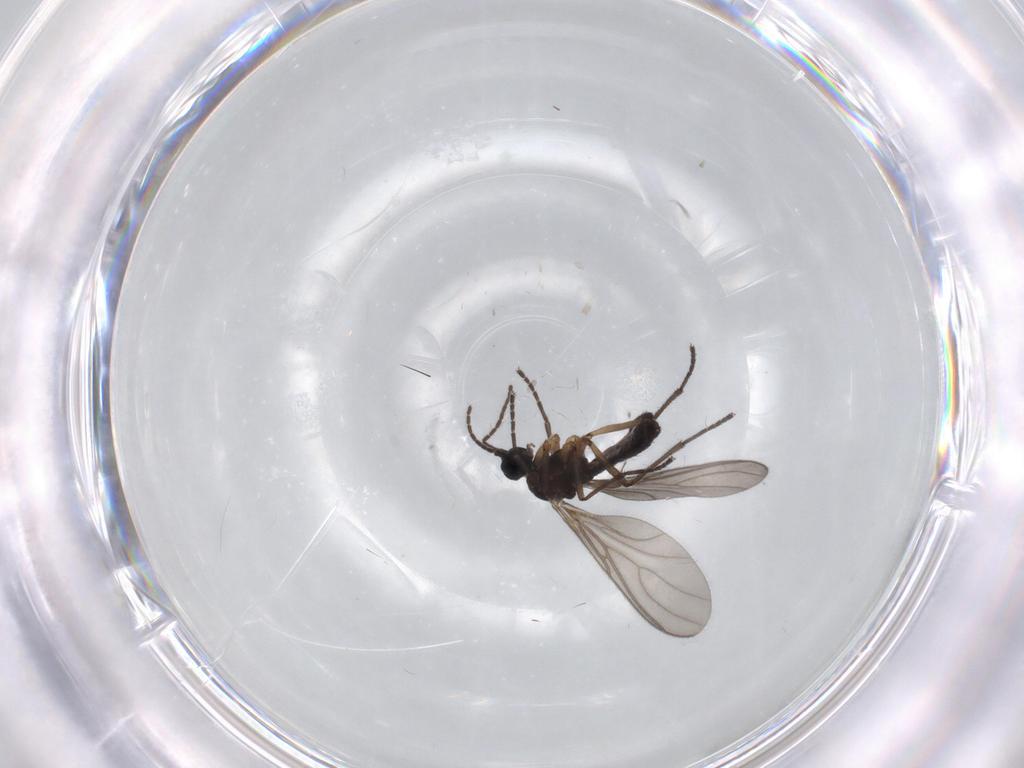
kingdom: Animalia
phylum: Arthropoda
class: Insecta
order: Diptera
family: Sciaridae
